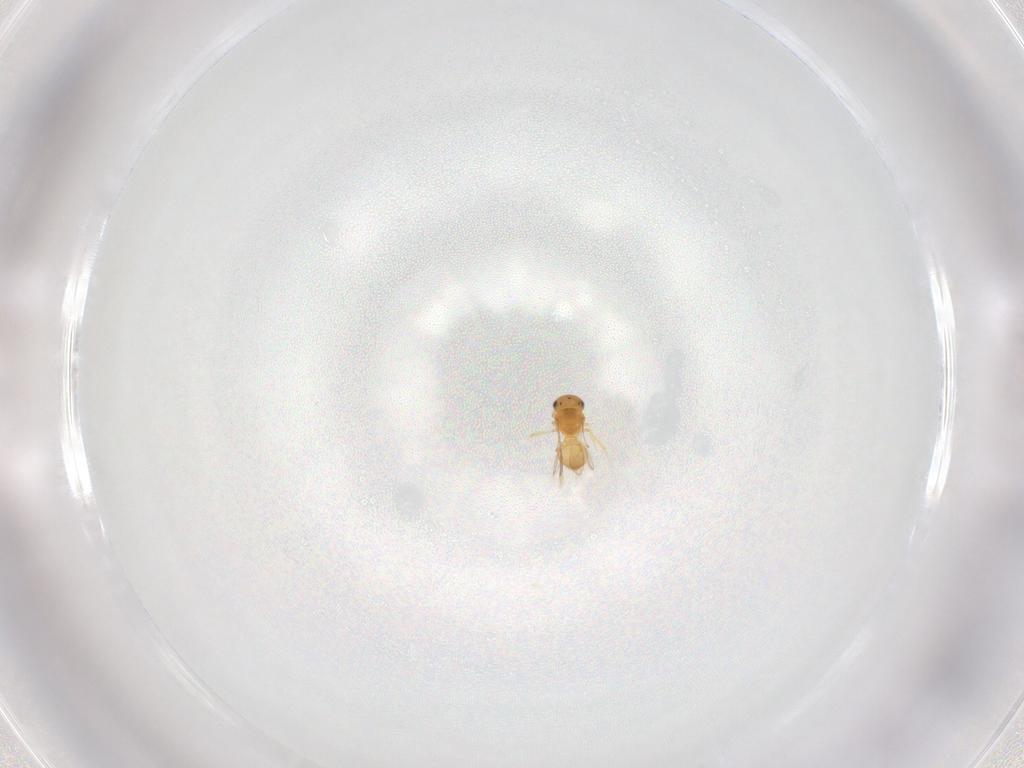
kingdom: Animalia
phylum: Arthropoda
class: Insecta
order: Hymenoptera
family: Scelionidae
